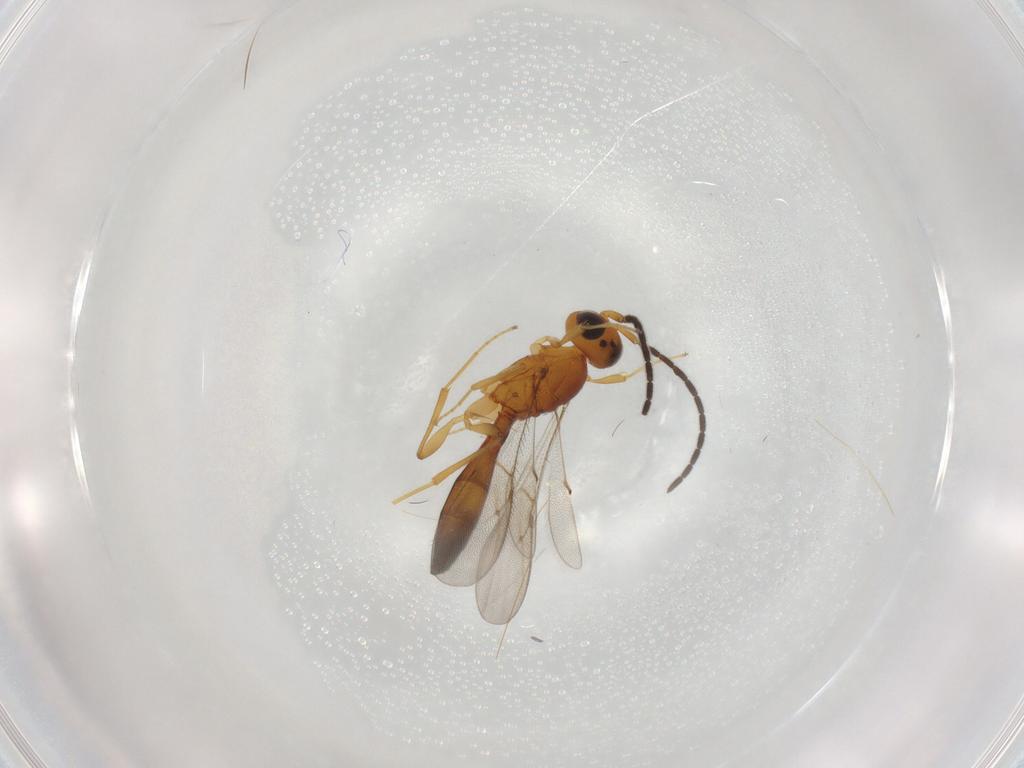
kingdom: Animalia
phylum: Arthropoda
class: Insecta
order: Hymenoptera
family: Scelionidae
